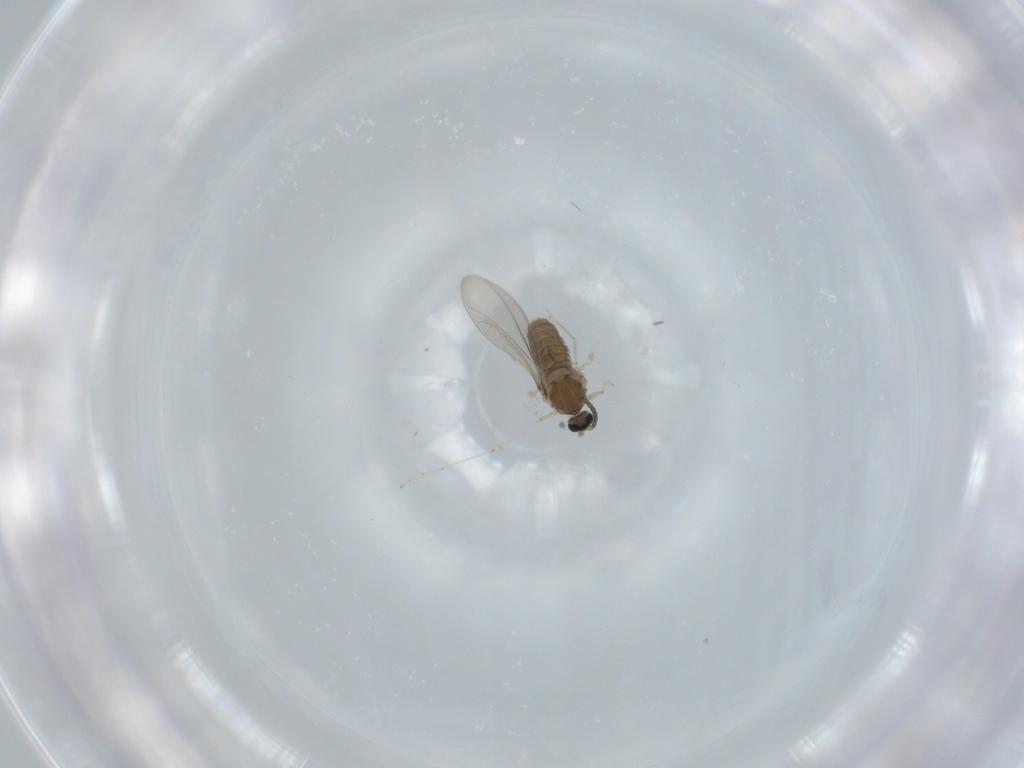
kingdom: Animalia
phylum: Arthropoda
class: Insecta
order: Diptera
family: Cecidomyiidae
